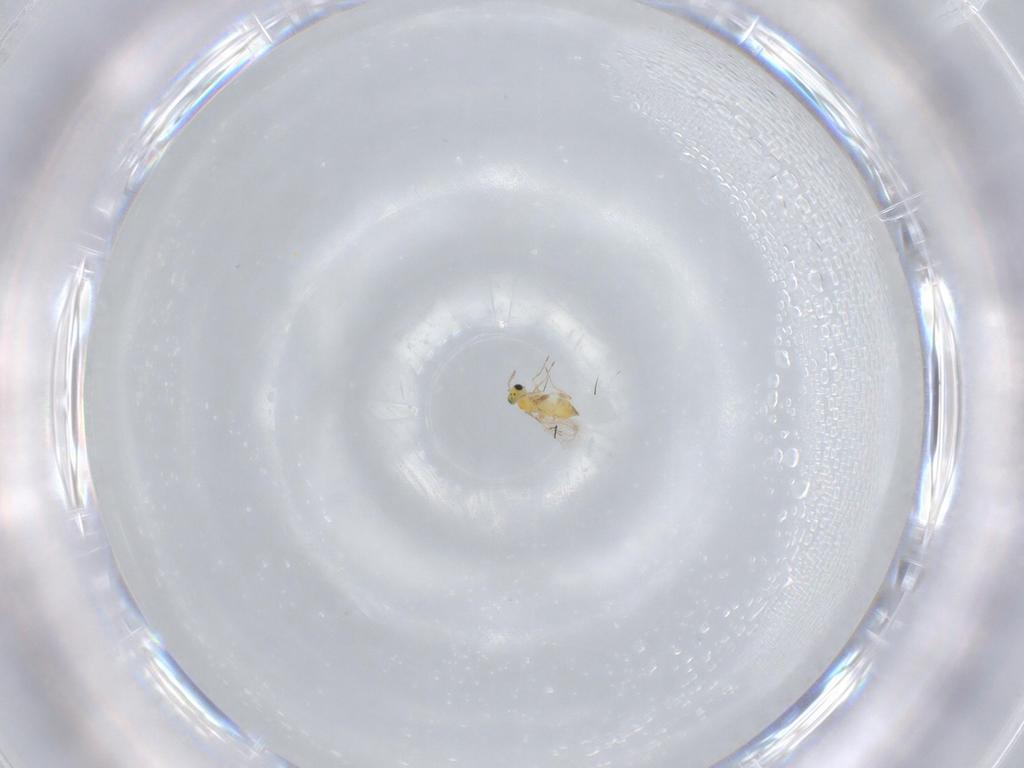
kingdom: Animalia
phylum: Arthropoda
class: Insecta
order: Hymenoptera
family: Trichogrammatidae
